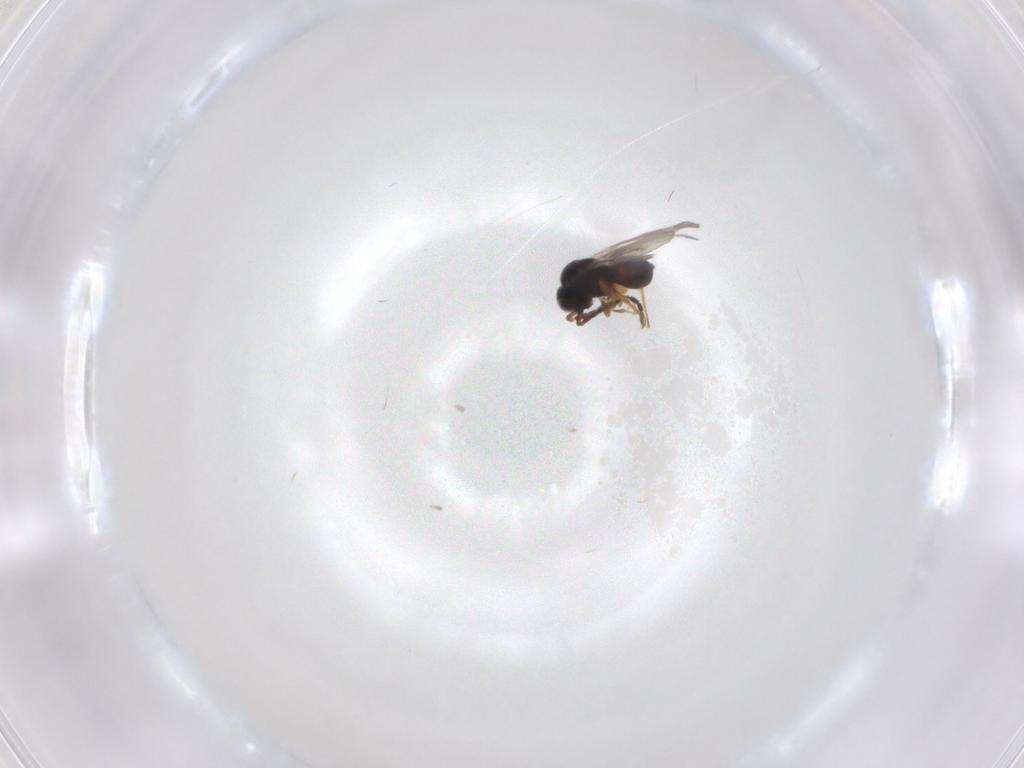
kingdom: Animalia
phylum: Arthropoda
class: Insecta
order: Hymenoptera
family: Ceraphronidae
